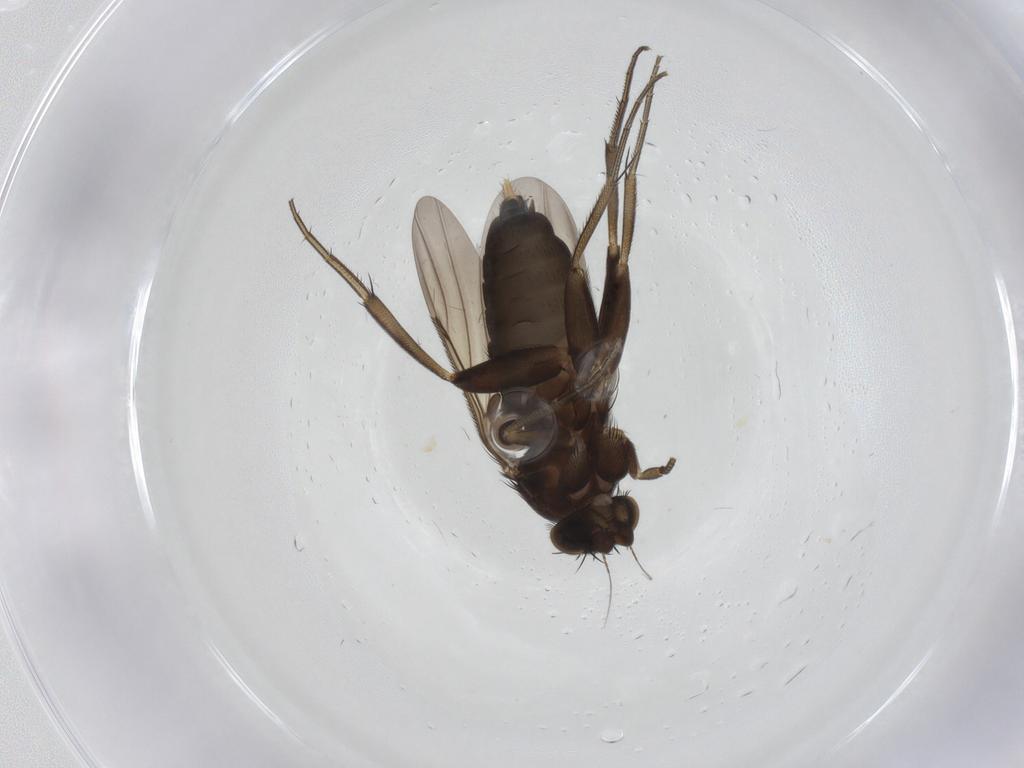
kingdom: Animalia
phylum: Arthropoda
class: Insecta
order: Diptera
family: Phoridae
